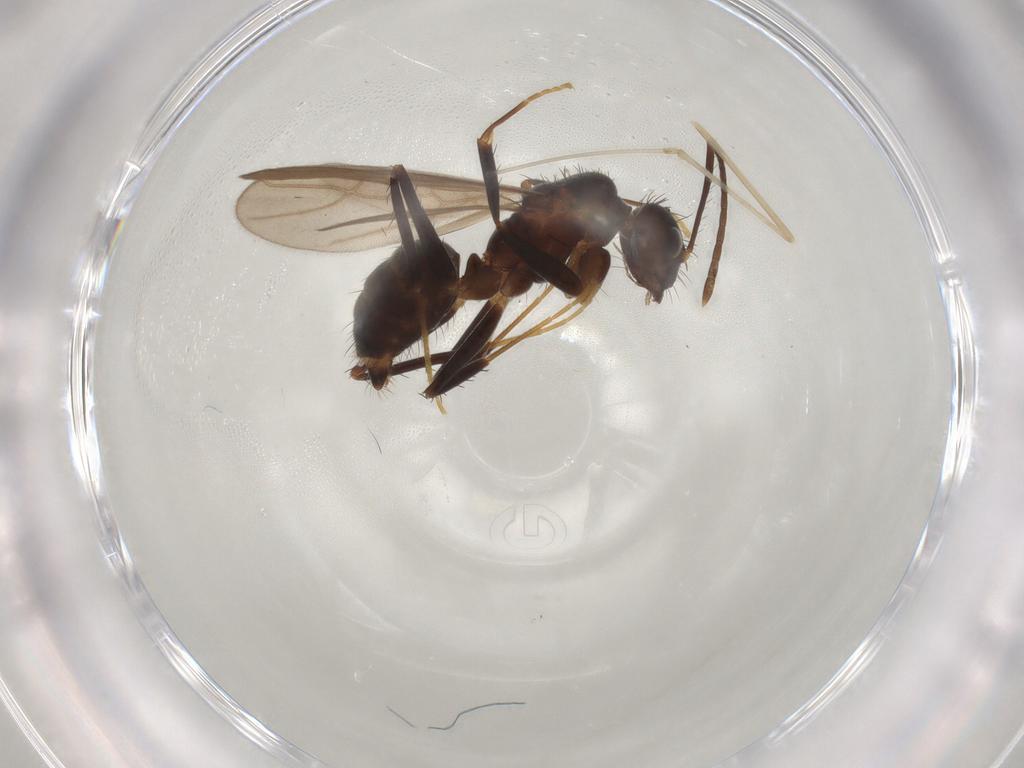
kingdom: Animalia
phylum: Arthropoda
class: Insecta
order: Hymenoptera
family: Formicidae
